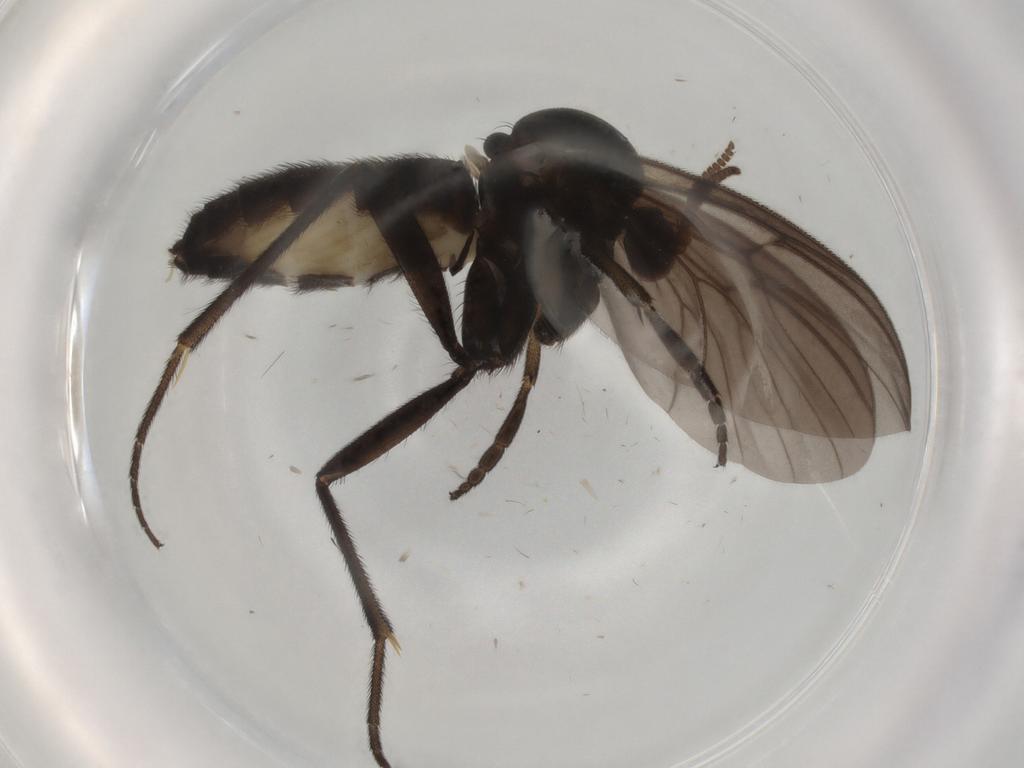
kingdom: Animalia
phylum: Arthropoda
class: Insecta
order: Diptera
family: Mycetophilidae
